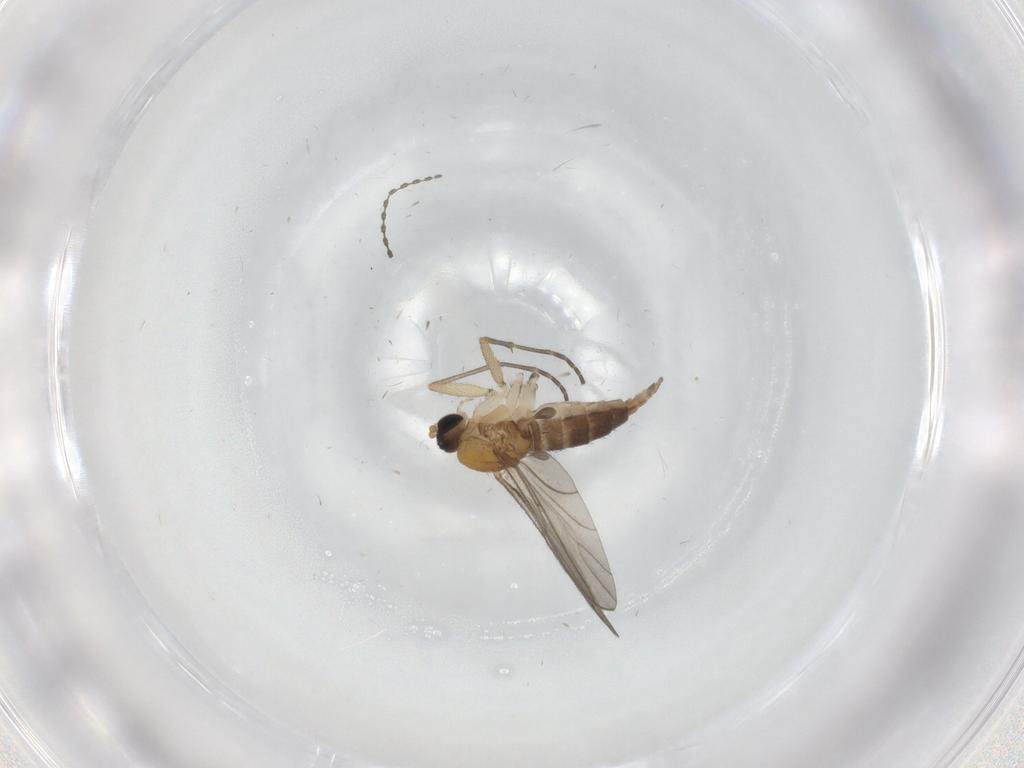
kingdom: Animalia
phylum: Arthropoda
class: Insecta
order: Diptera
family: Cecidomyiidae
